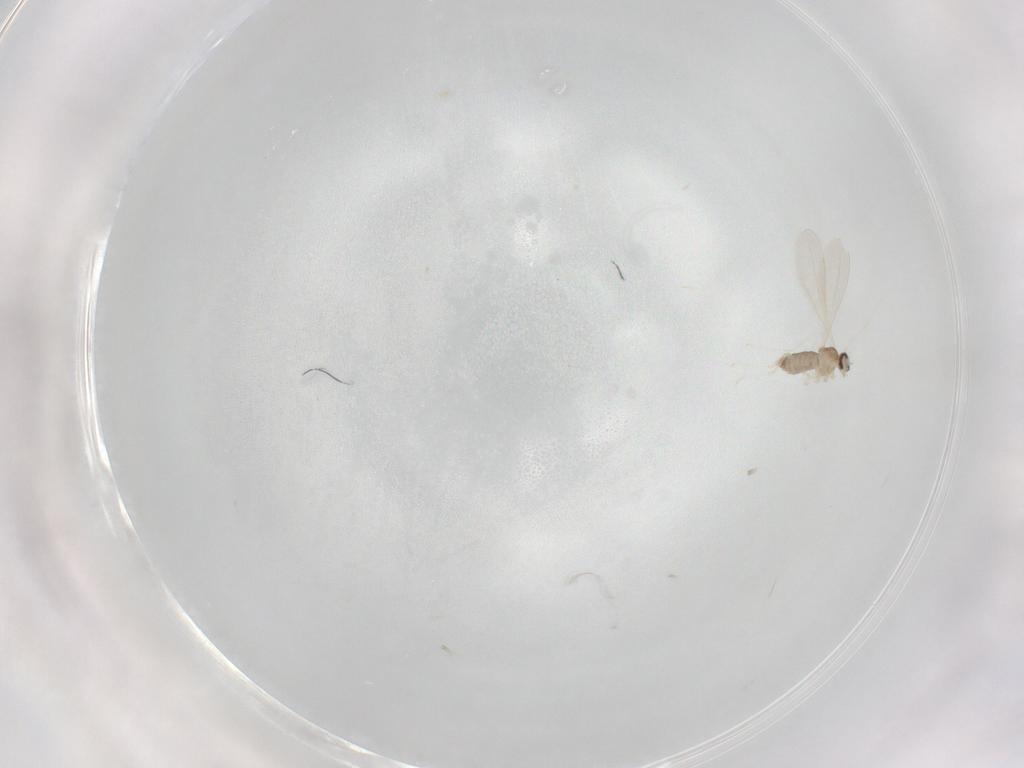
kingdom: Animalia
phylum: Arthropoda
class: Insecta
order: Diptera
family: Cecidomyiidae
